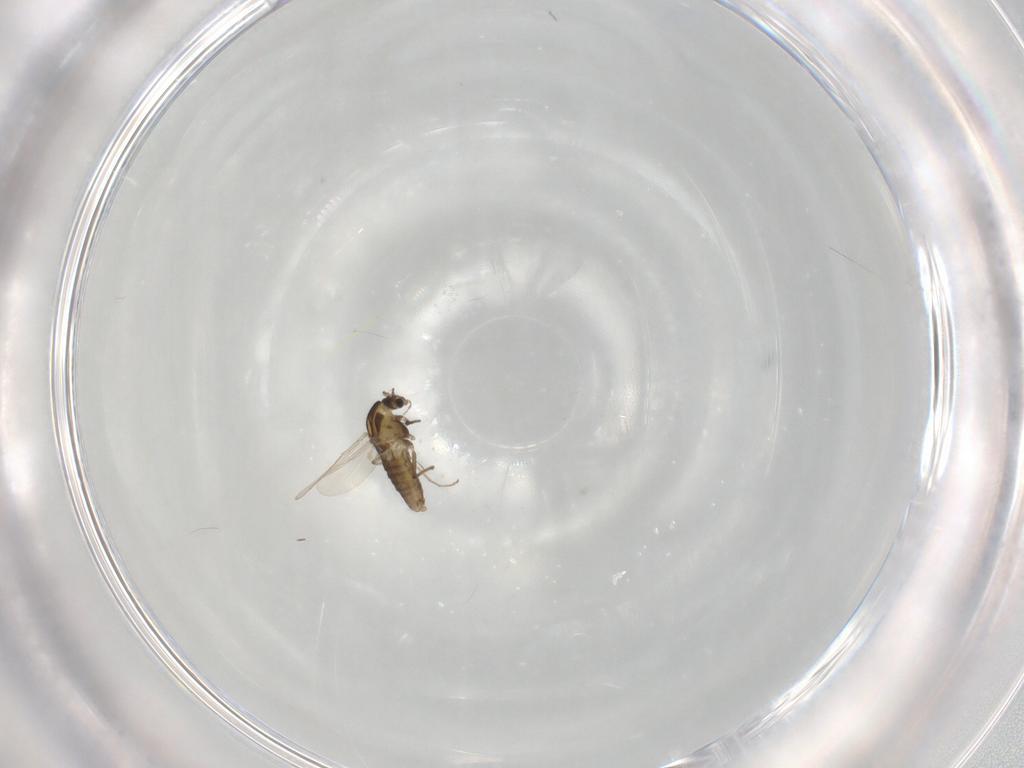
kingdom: Animalia
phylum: Arthropoda
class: Insecta
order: Diptera
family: Chironomidae
